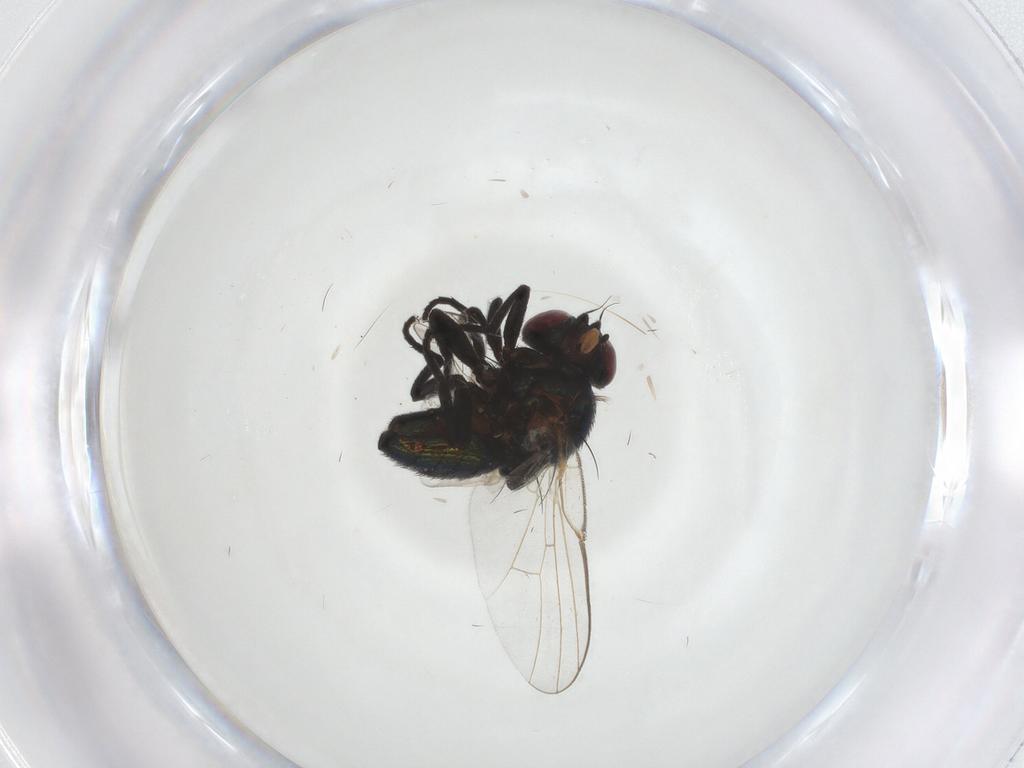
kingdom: Animalia
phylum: Arthropoda
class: Insecta
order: Diptera
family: Agromyzidae
